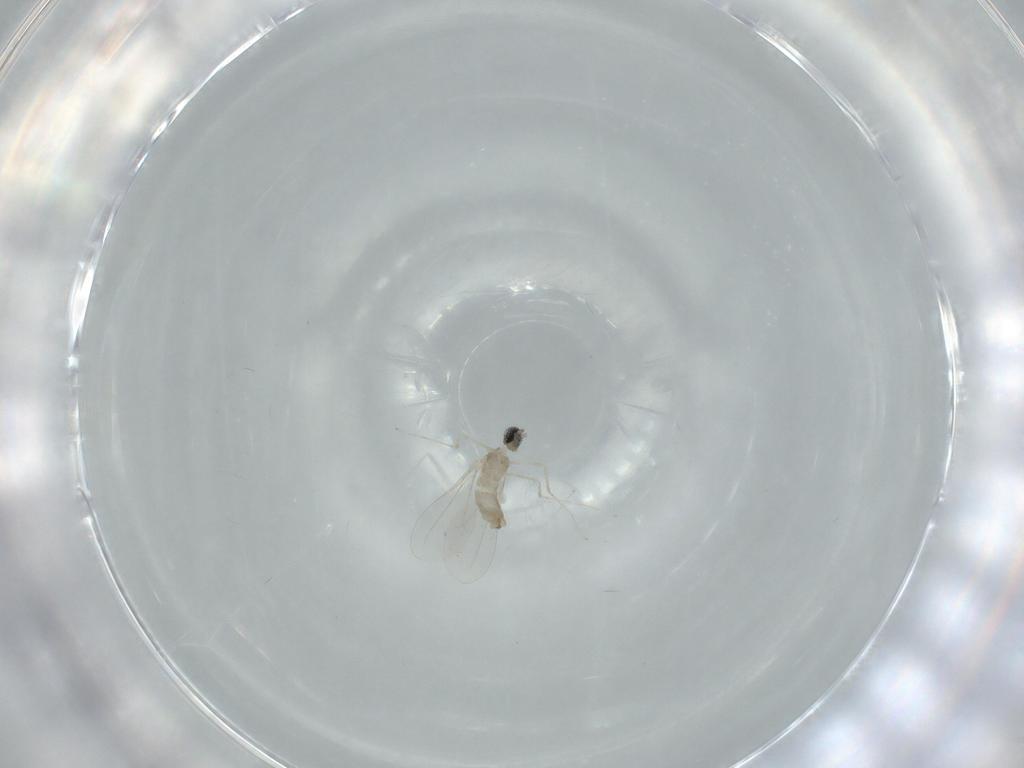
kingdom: Animalia
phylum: Arthropoda
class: Insecta
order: Diptera
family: Cecidomyiidae
